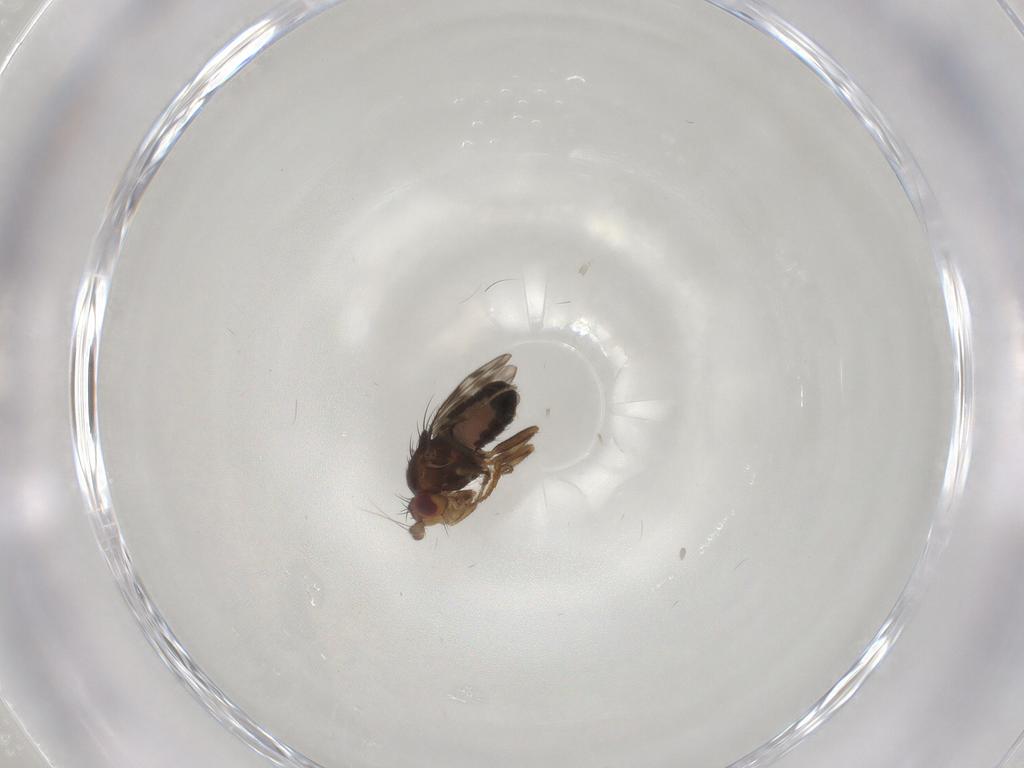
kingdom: Animalia
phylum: Arthropoda
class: Insecta
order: Diptera
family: Sphaeroceridae
